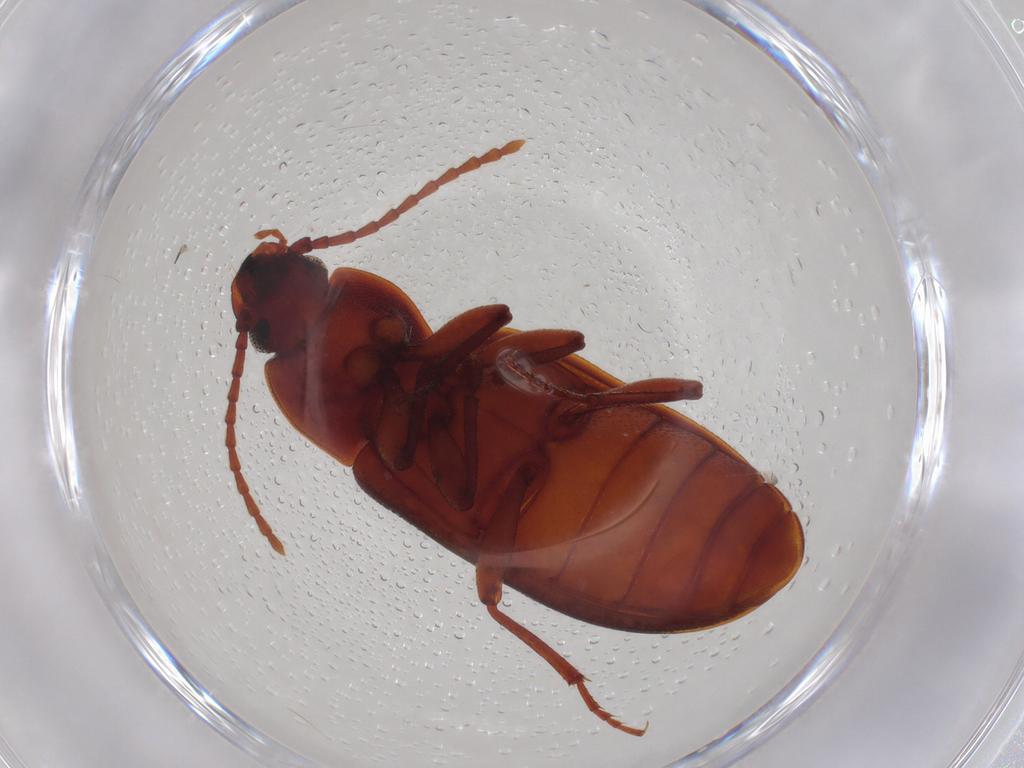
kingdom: Animalia
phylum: Arthropoda
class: Insecta
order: Coleoptera
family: Tenebrionidae
